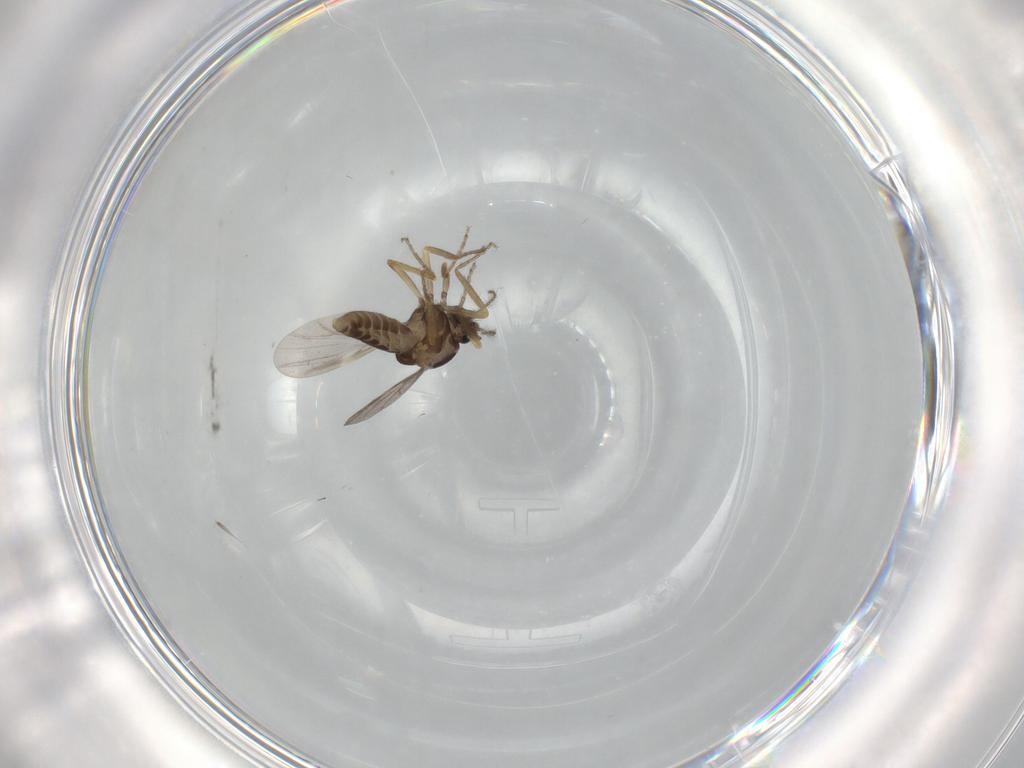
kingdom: Animalia
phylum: Arthropoda
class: Insecta
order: Diptera
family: Ceratopogonidae
